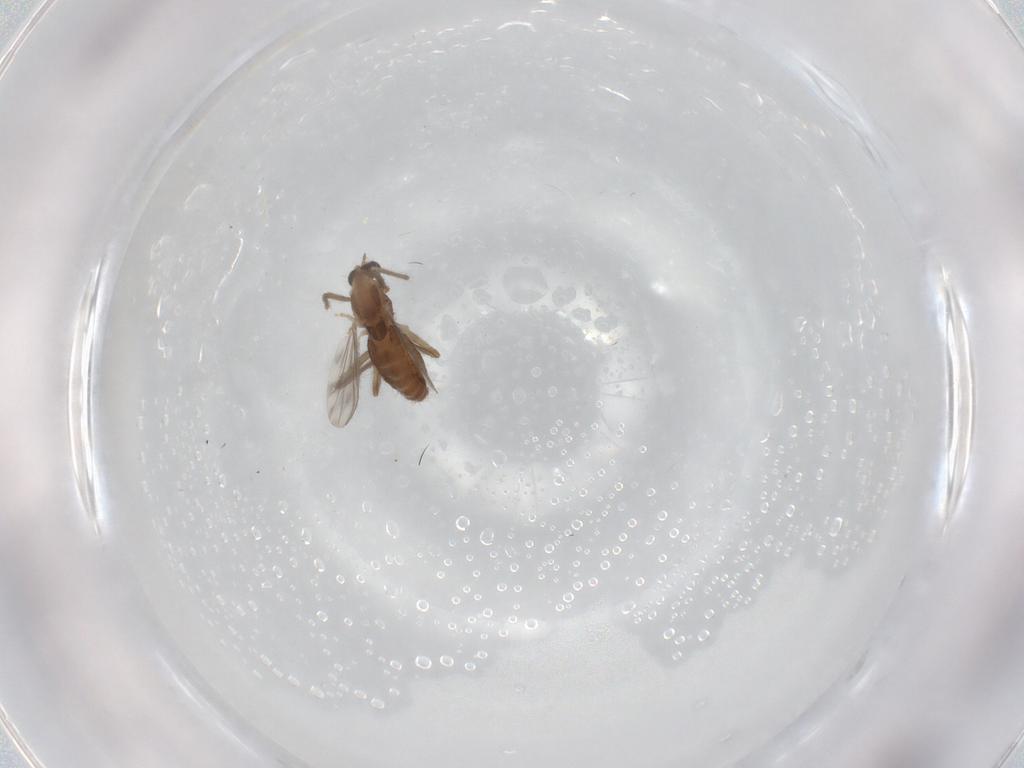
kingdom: Animalia
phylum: Arthropoda
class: Insecta
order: Diptera
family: Chironomidae
